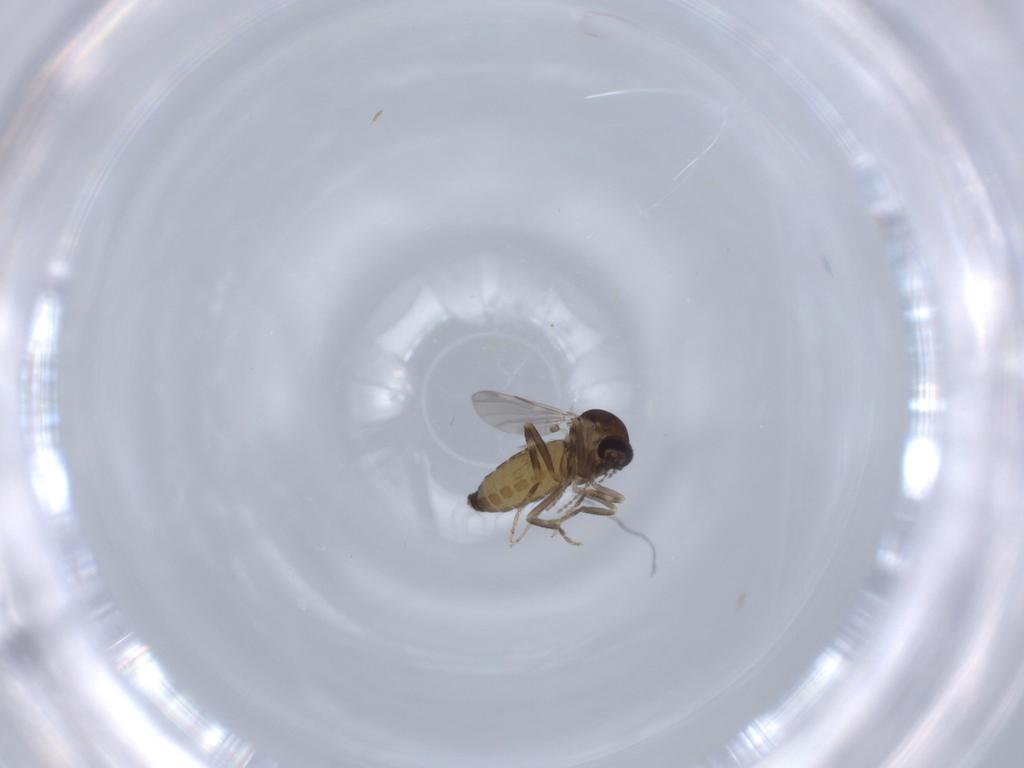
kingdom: Animalia
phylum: Arthropoda
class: Insecta
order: Diptera
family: Ceratopogonidae
